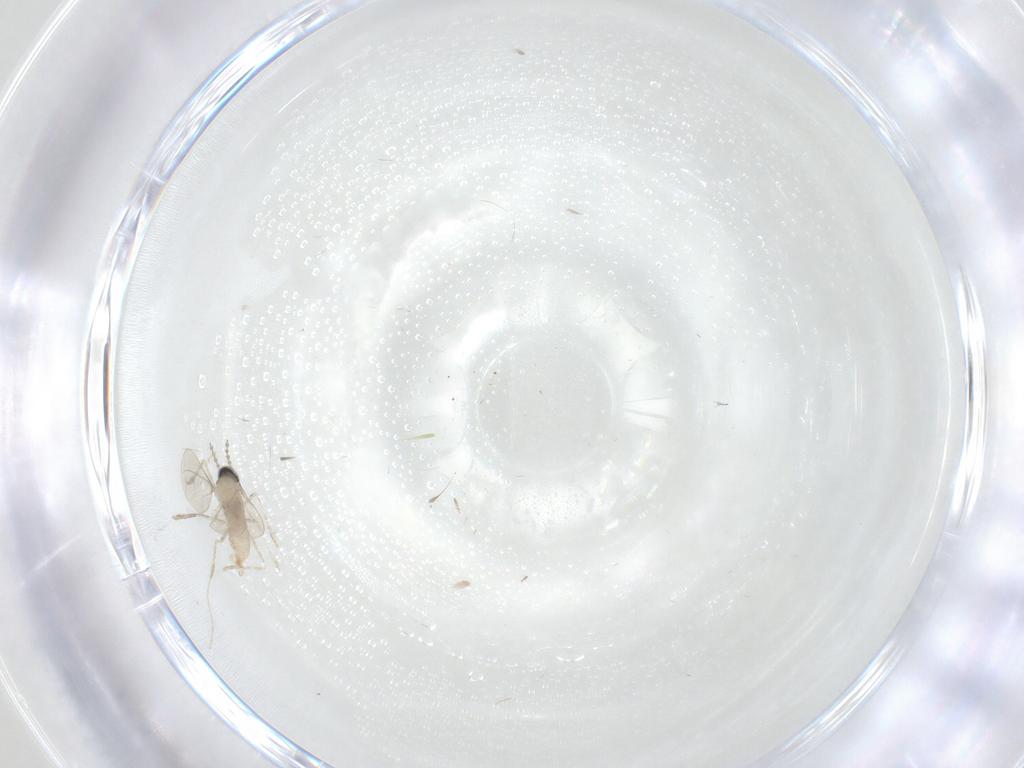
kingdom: Animalia
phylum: Arthropoda
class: Insecta
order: Diptera
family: Cecidomyiidae
